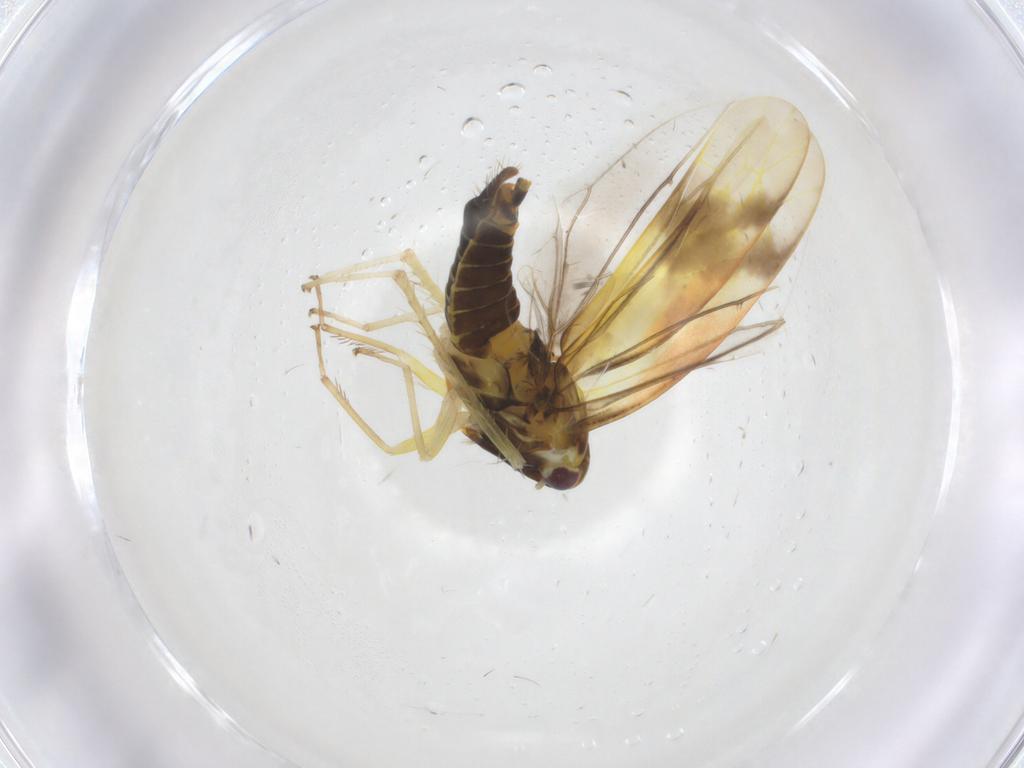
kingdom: Animalia
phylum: Arthropoda
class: Insecta
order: Hemiptera
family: Cicadellidae
